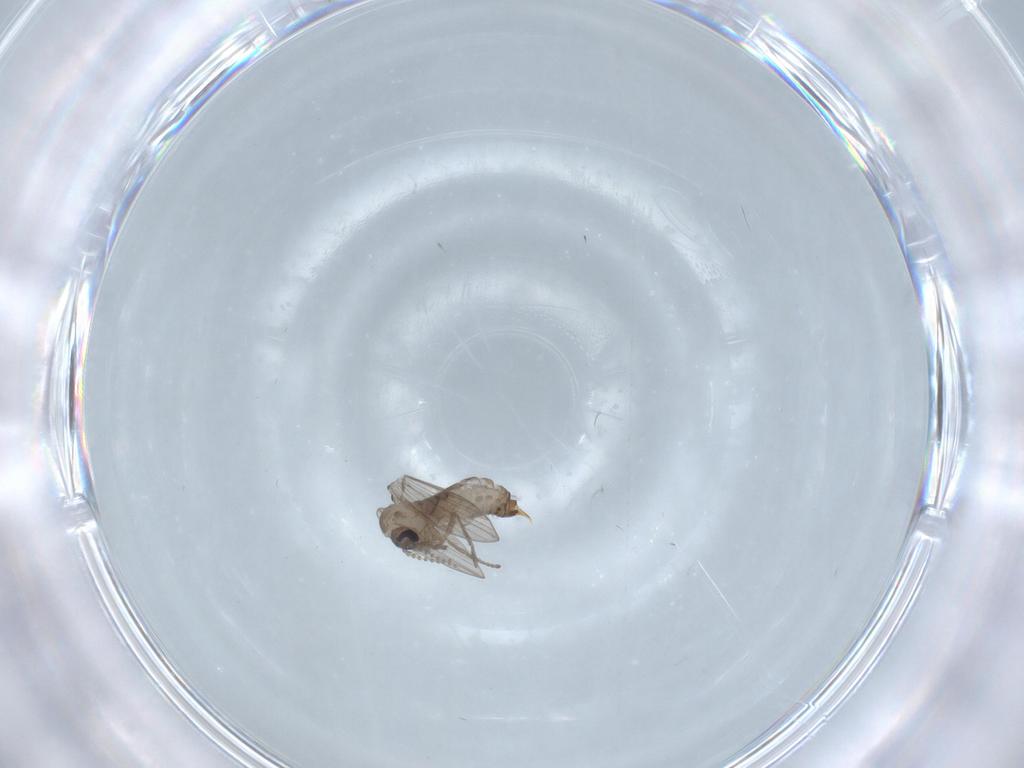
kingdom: Animalia
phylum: Arthropoda
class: Insecta
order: Diptera
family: Psychodidae
